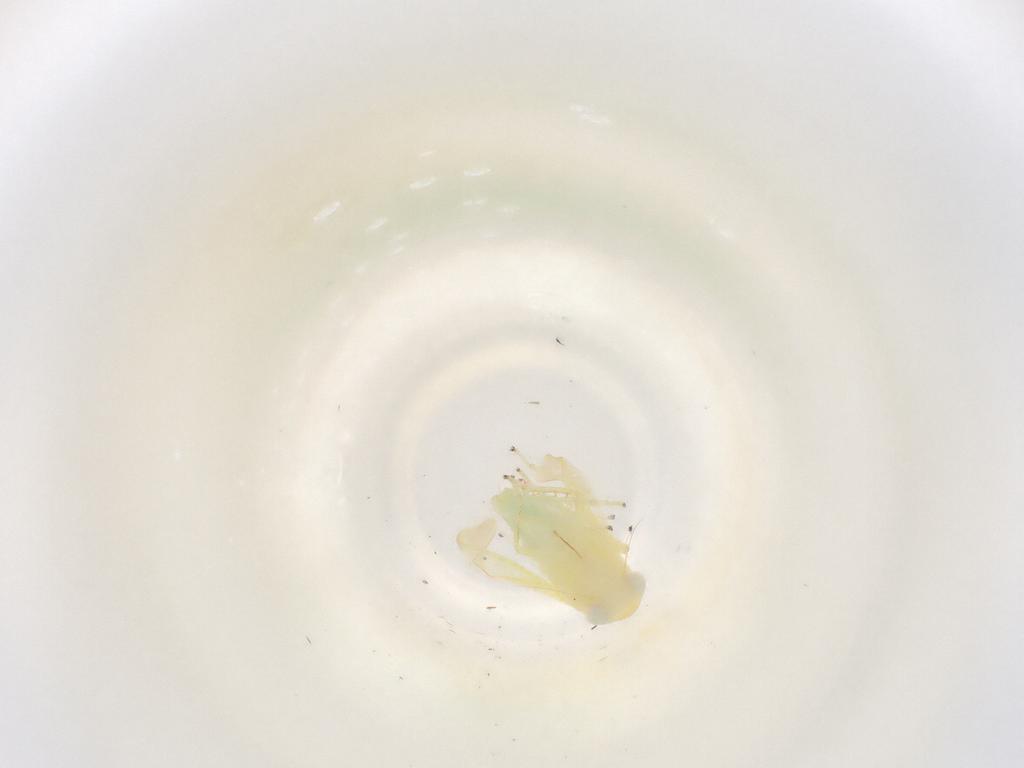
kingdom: Animalia
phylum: Arthropoda
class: Insecta
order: Hemiptera
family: Cicadellidae
